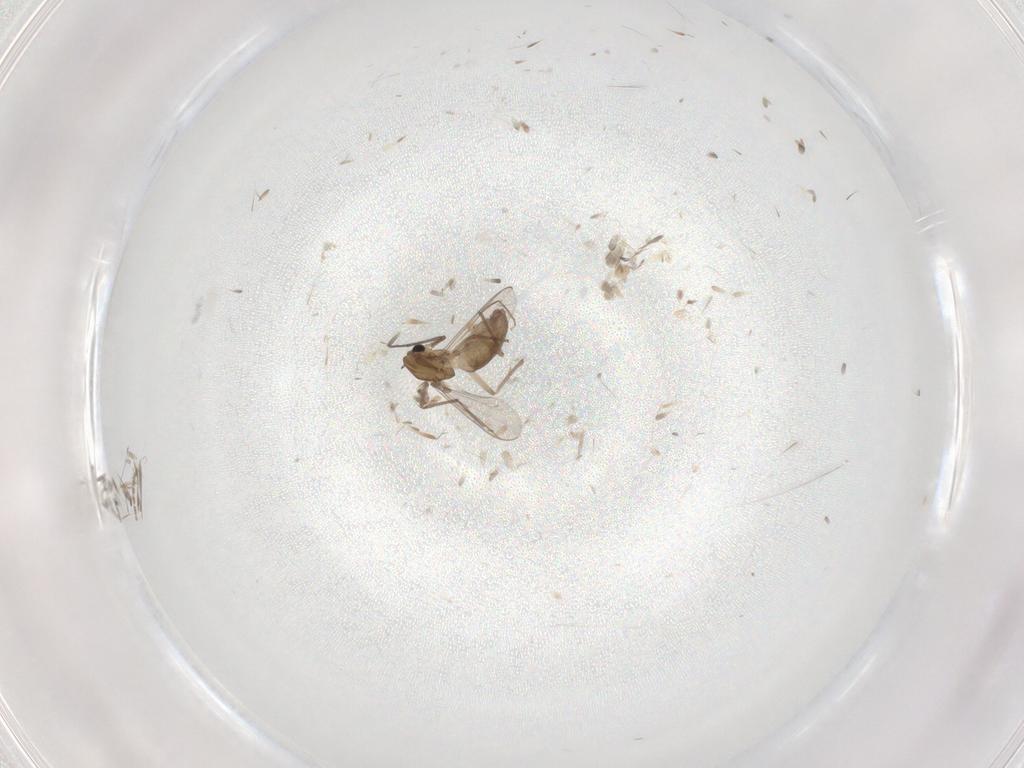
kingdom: Animalia
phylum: Arthropoda
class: Insecta
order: Diptera
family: Chironomidae
